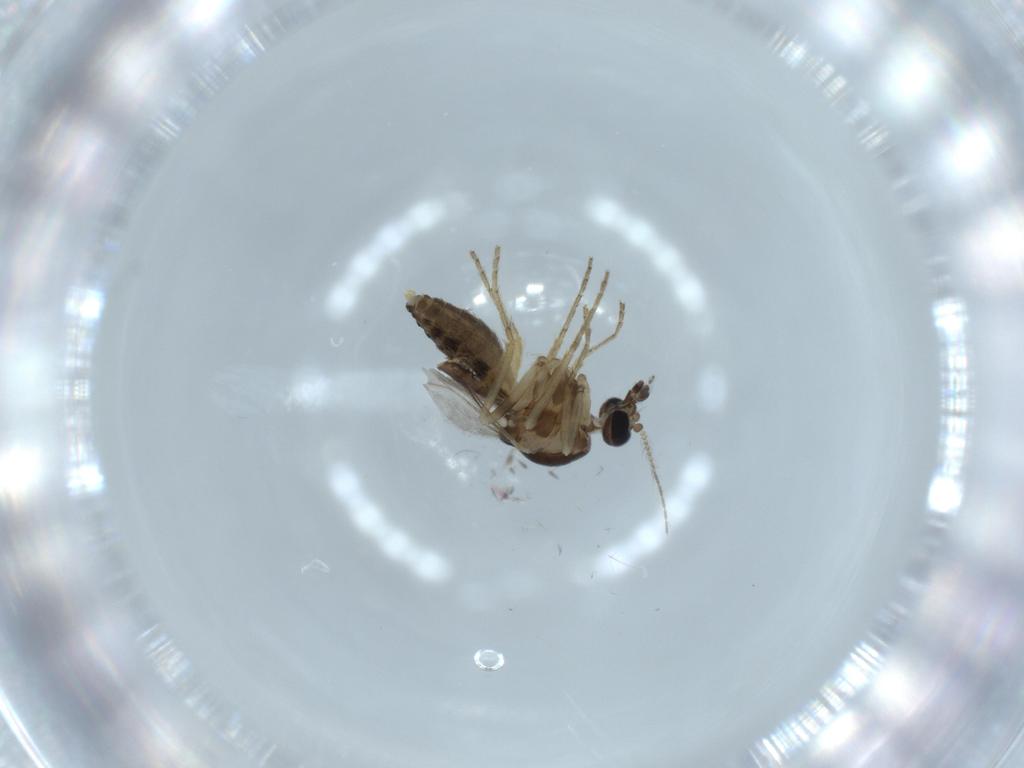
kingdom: Animalia
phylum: Arthropoda
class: Insecta
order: Diptera
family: Ceratopogonidae
